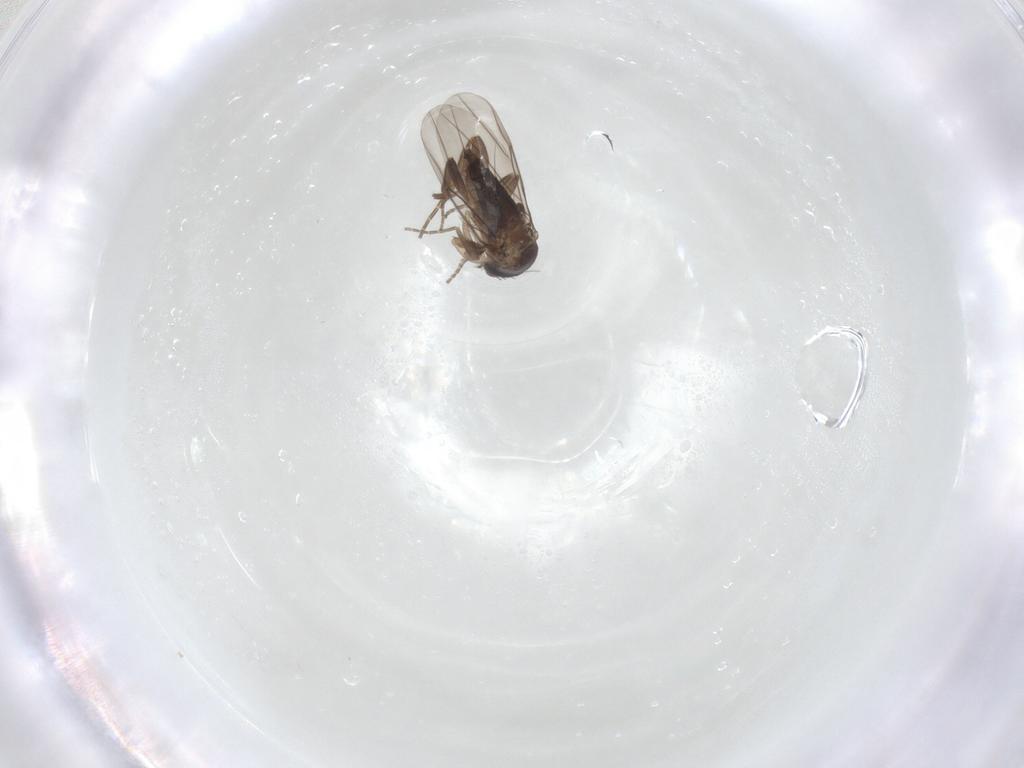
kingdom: Animalia
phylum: Arthropoda
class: Insecta
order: Diptera
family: Phoridae
